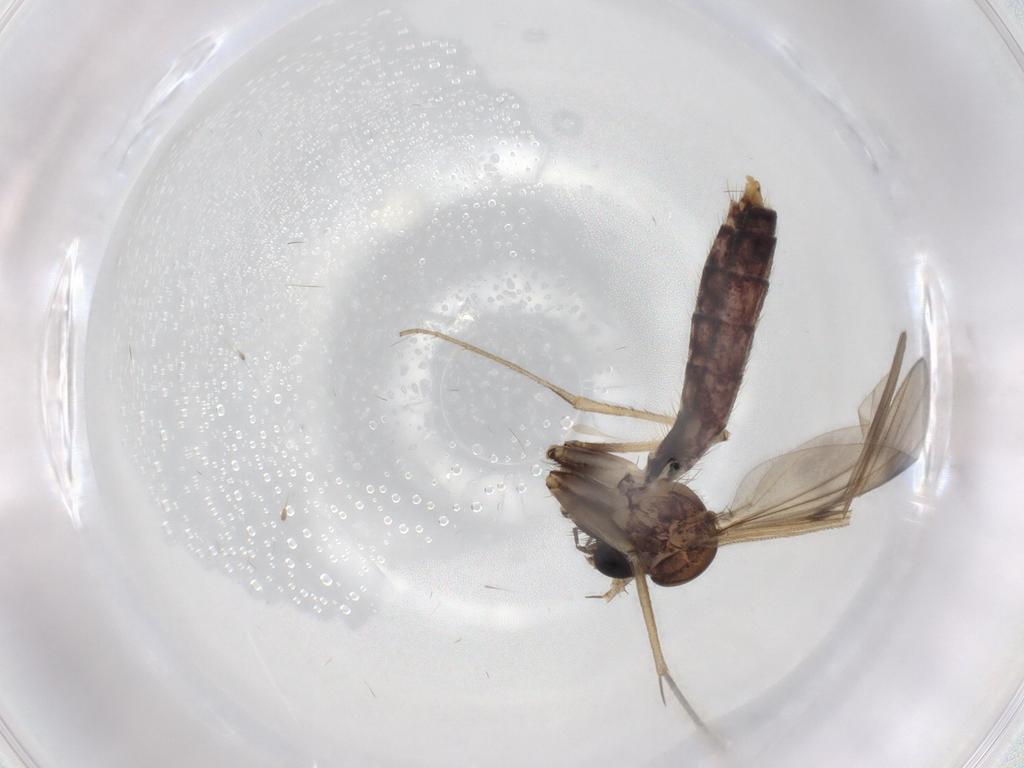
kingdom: Animalia
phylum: Arthropoda
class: Insecta
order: Diptera
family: Mycetophilidae
